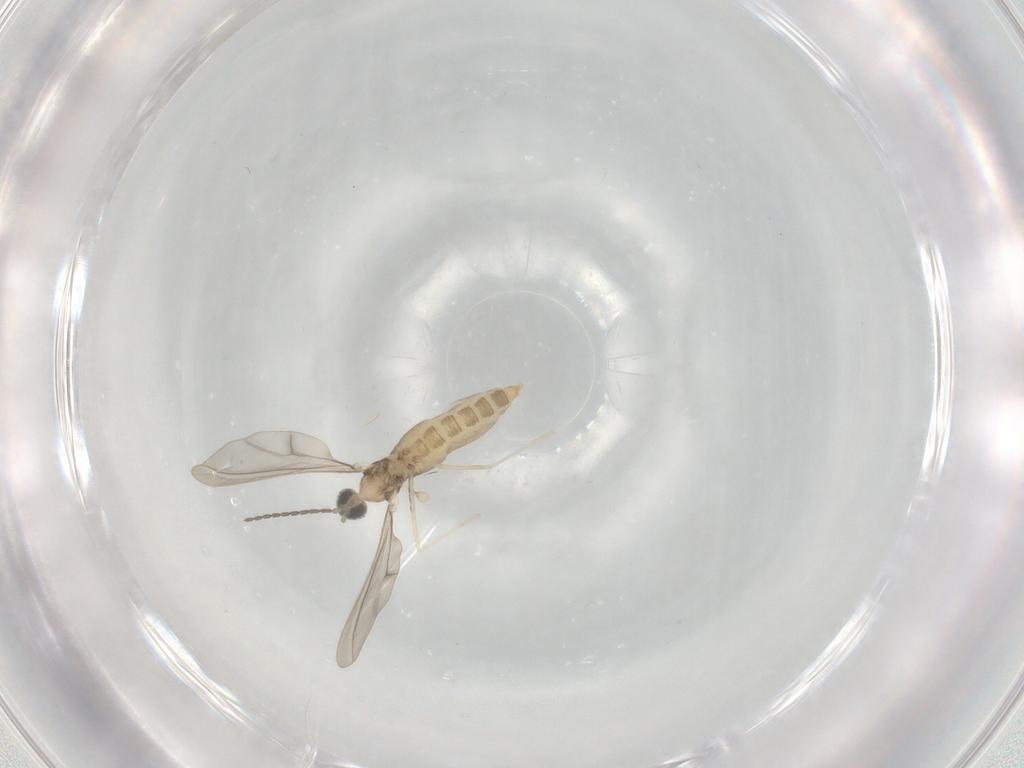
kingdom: Animalia
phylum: Arthropoda
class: Insecta
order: Diptera
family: Cecidomyiidae
